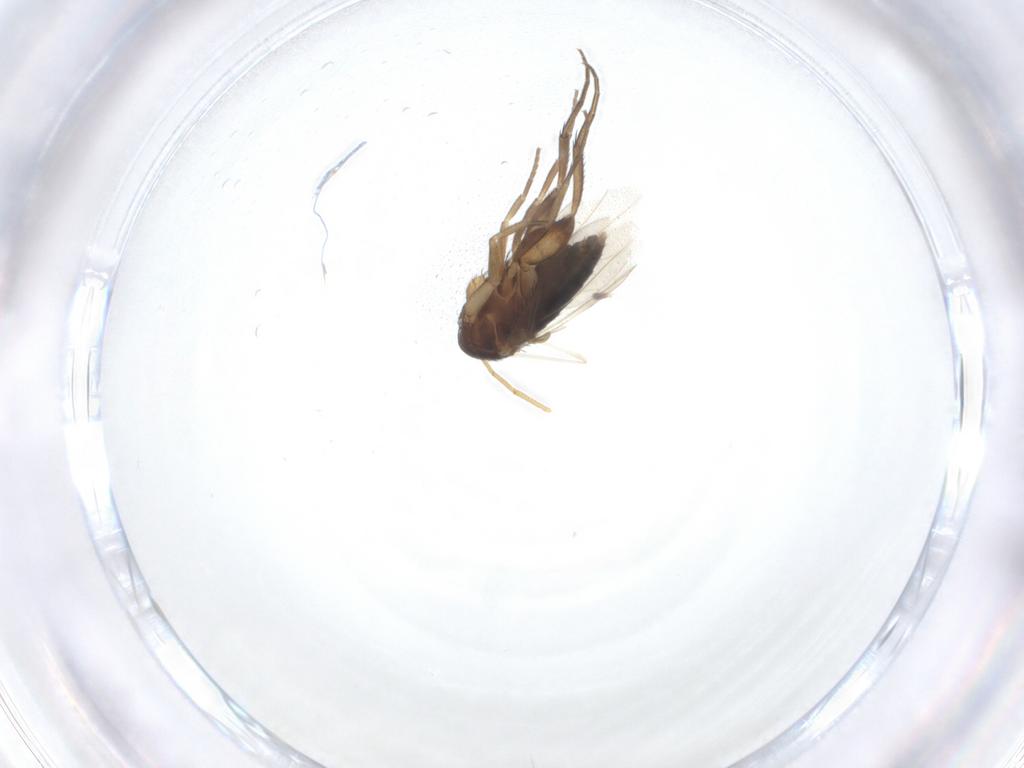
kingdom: Animalia
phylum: Arthropoda
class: Insecta
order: Diptera
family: Phoridae
